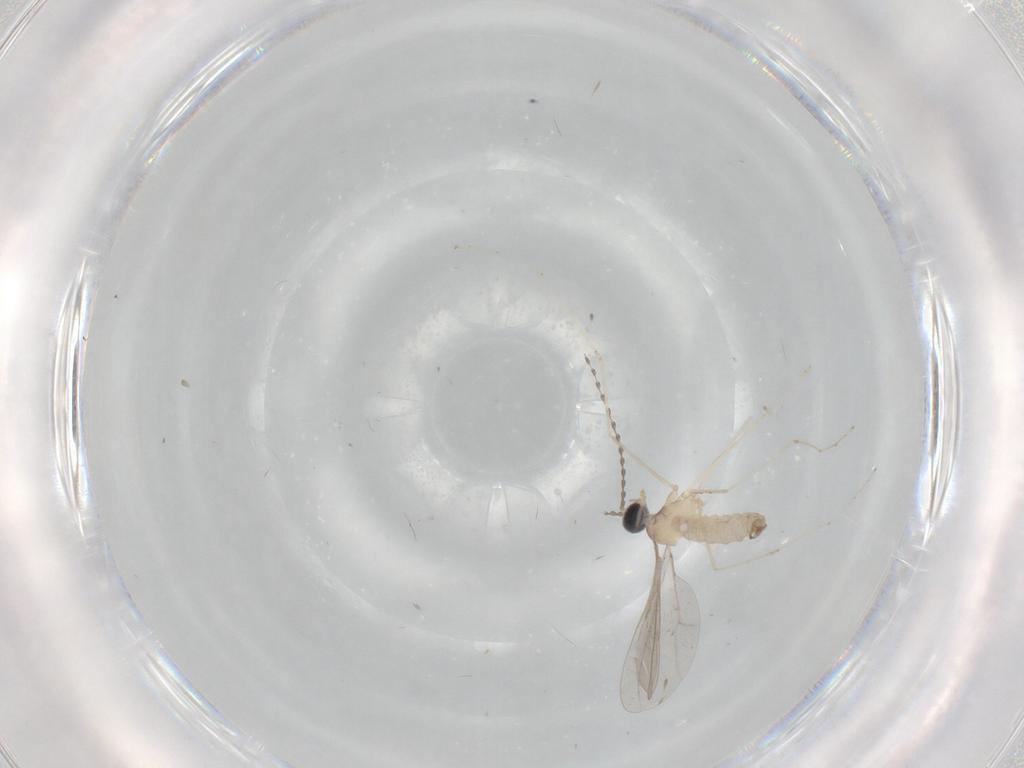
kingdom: Animalia
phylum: Arthropoda
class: Insecta
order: Diptera
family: Cecidomyiidae
